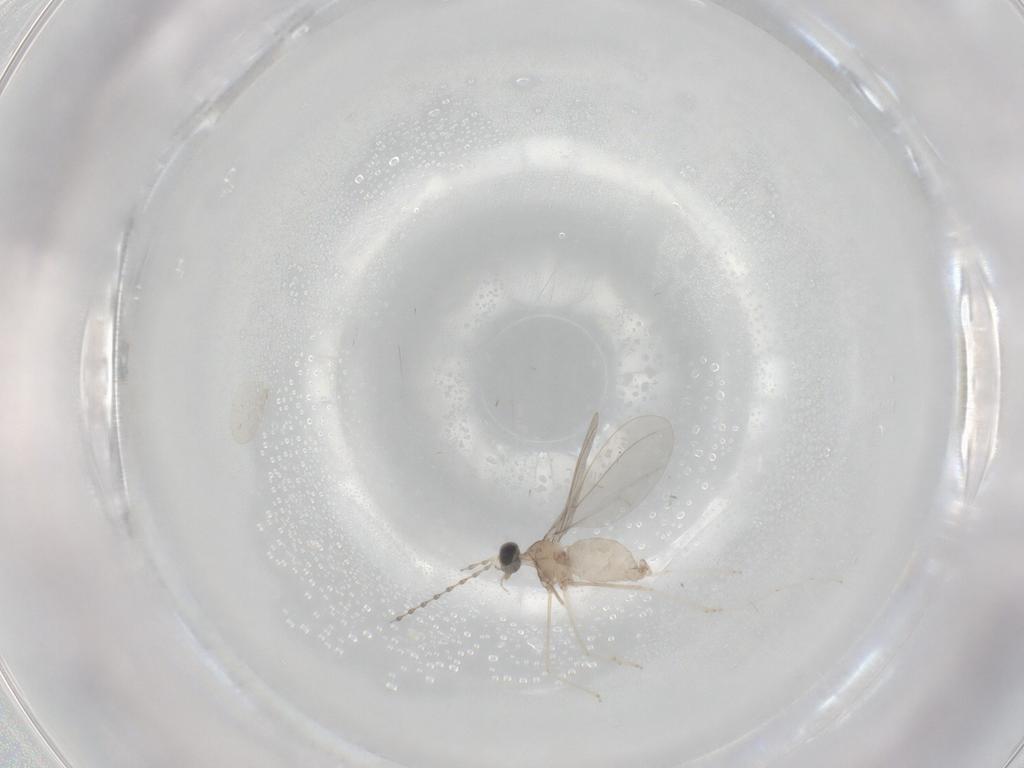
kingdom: Animalia
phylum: Arthropoda
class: Insecta
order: Diptera
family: Cecidomyiidae
